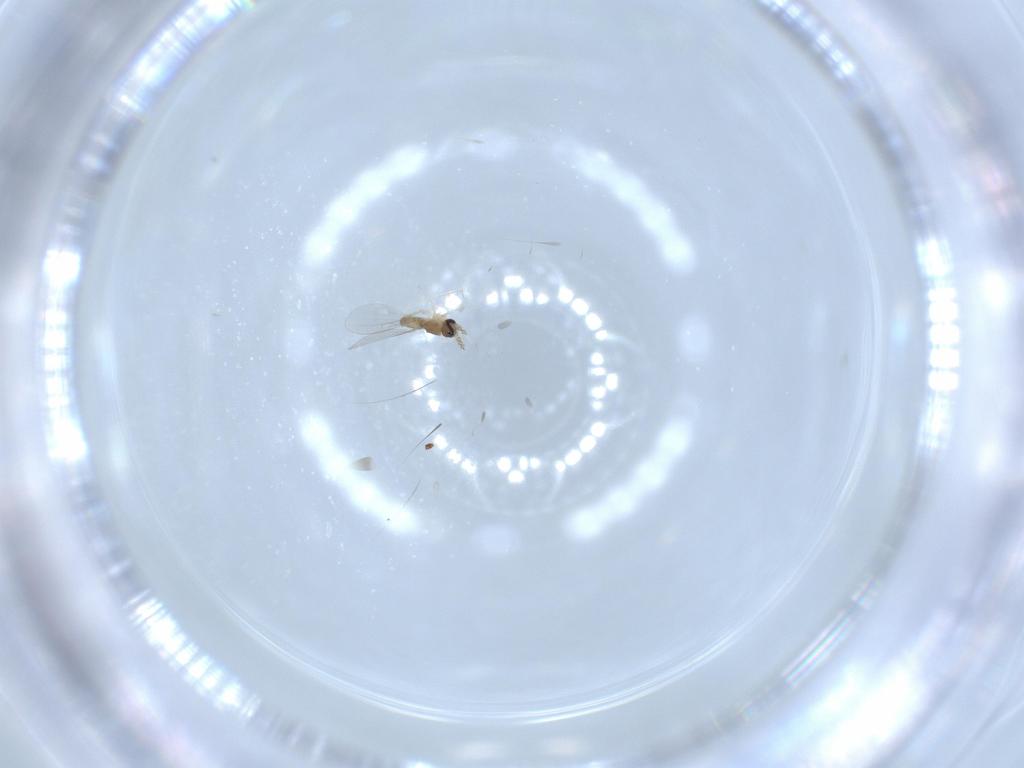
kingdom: Animalia
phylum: Arthropoda
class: Insecta
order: Diptera
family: Cecidomyiidae
